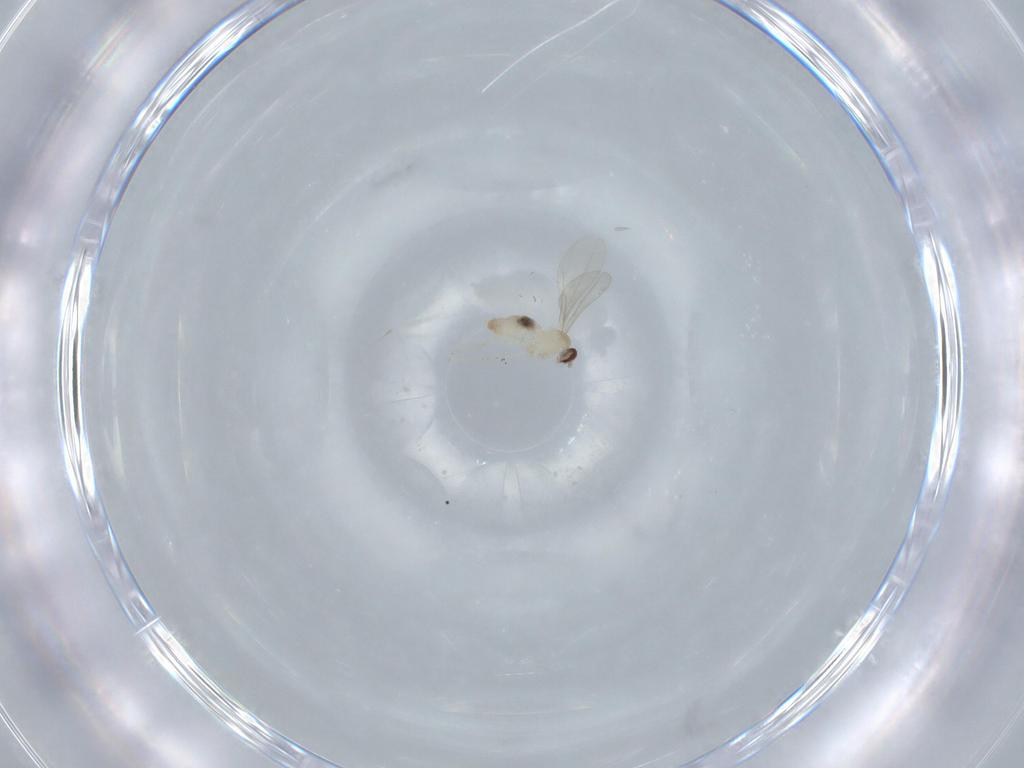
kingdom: Animalia
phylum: Arthropoda
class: Insecta
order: Diptera
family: Cecidomyiidae
